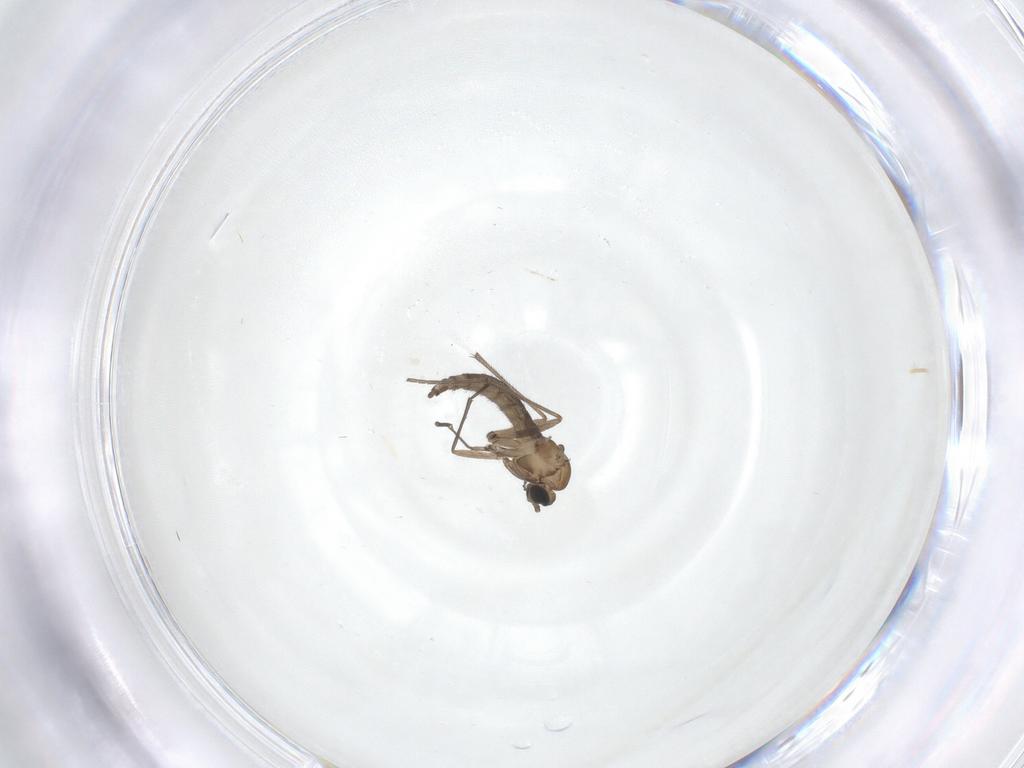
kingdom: Animalia
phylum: Arthropoda
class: Insecta
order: Diptera
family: Sciaridae
